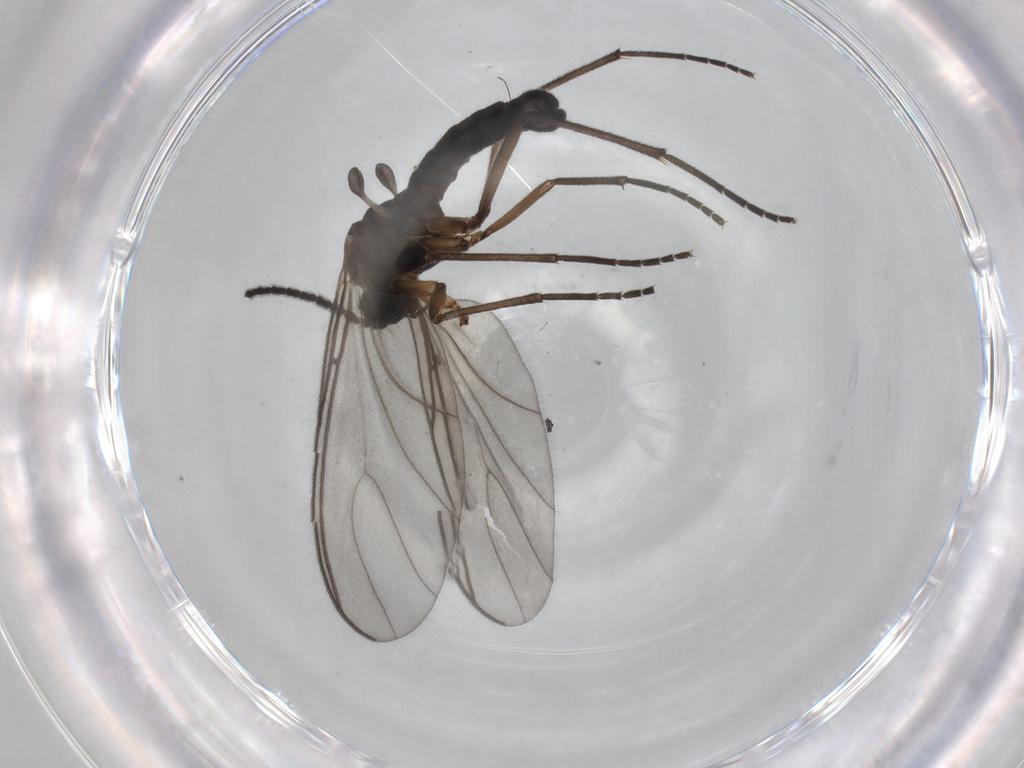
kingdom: Animalia
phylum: Arthropoda
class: Insecta
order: Diptera
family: Sciaridae
